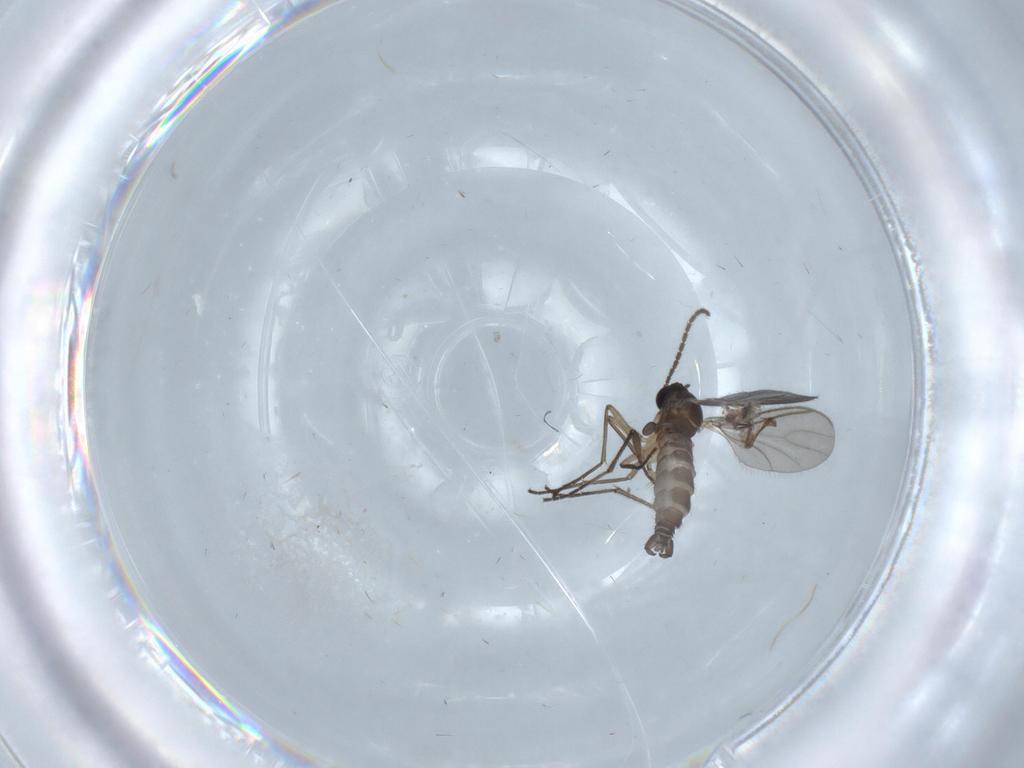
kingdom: Animalia
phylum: Arthropoda
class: Insecta
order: Diptera
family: Sciaridae
